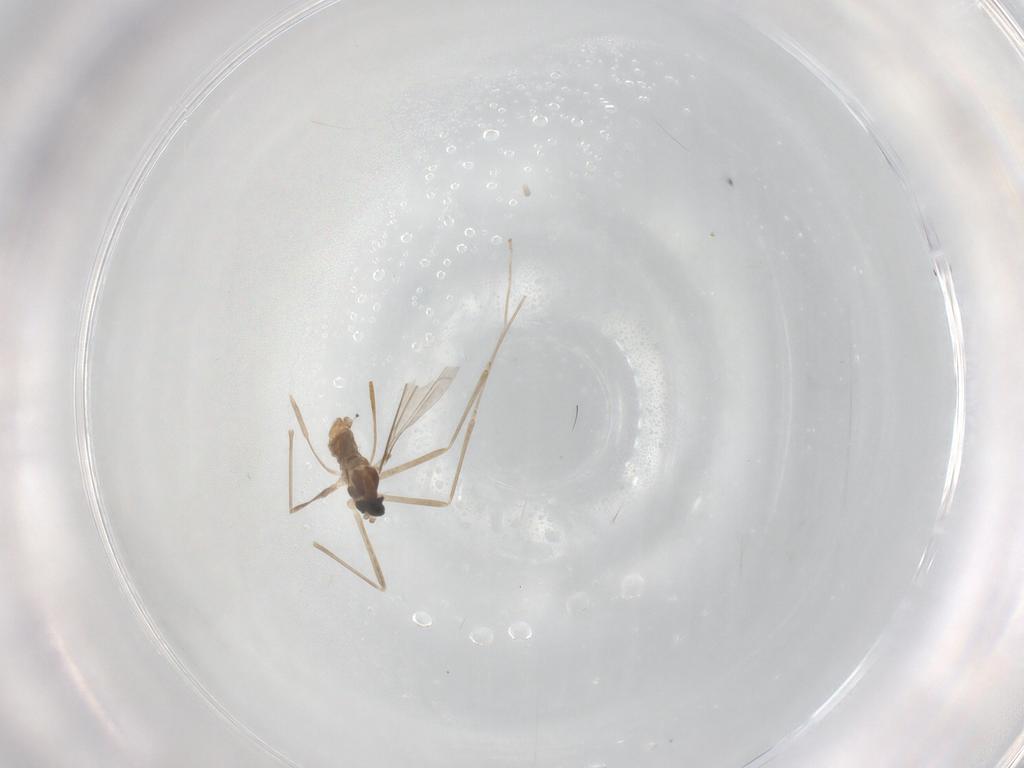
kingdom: Animalia
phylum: Arthropoda
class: Insecta
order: Diptera
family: Cecidomyiidae
